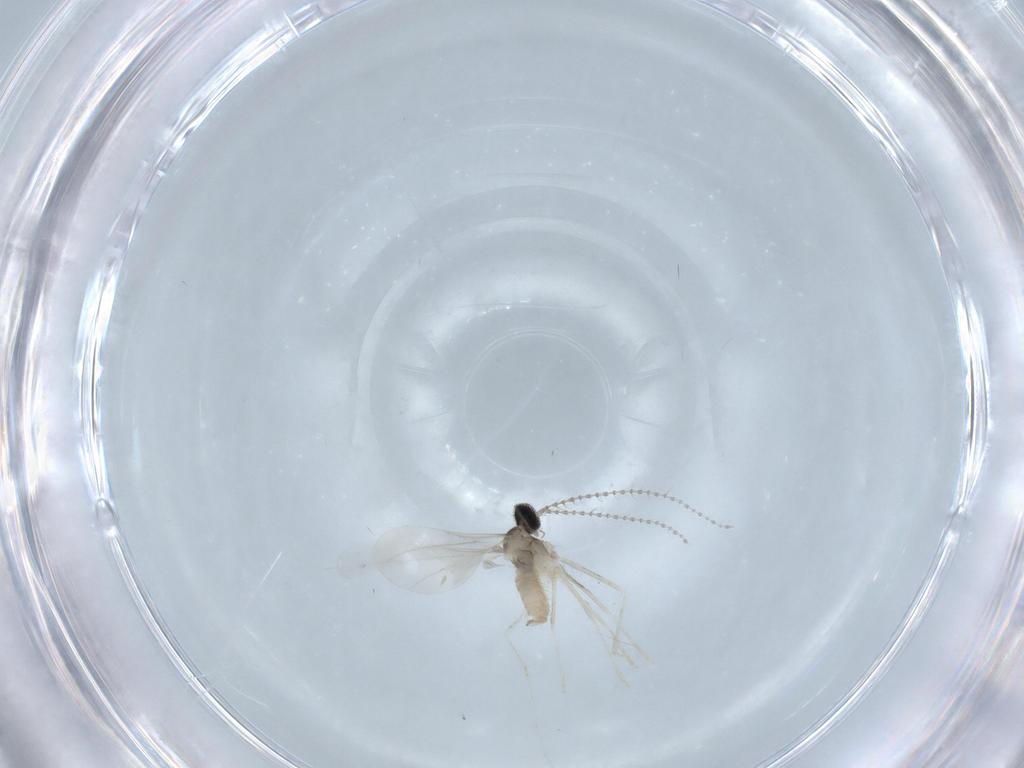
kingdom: Animalia
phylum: Arthropoda
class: Insecta
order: Diptera
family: Cecidomyiidae
